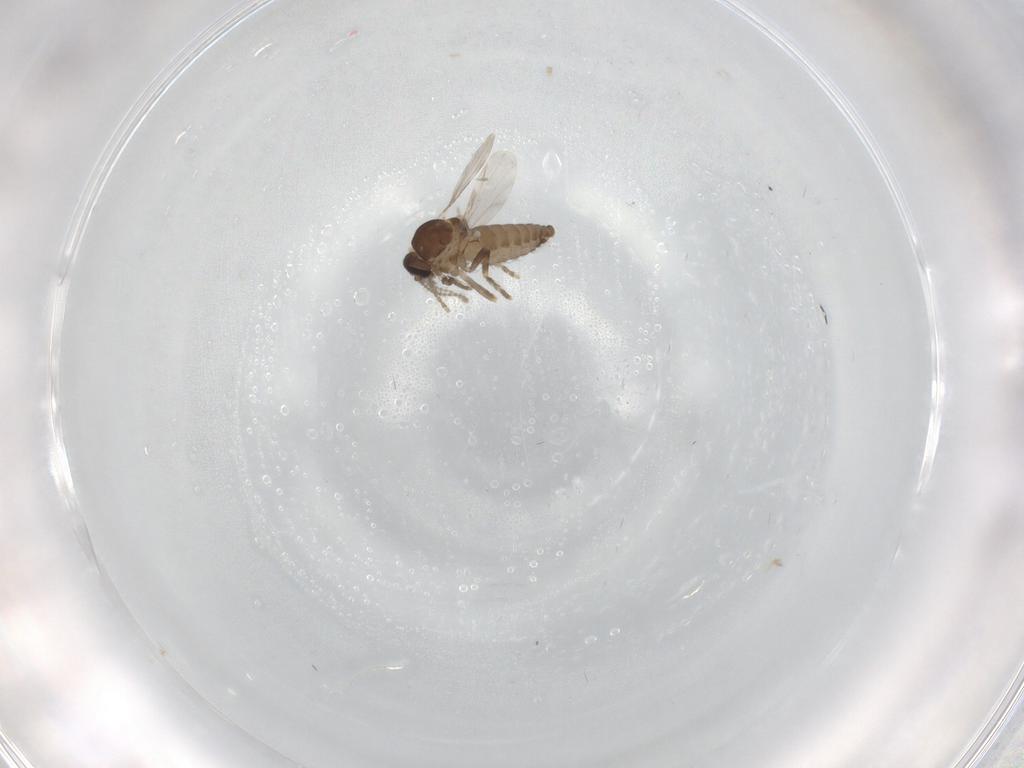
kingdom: Animalia
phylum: Arthropoda
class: Insecta
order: Diptera
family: Ceratopogonidae
